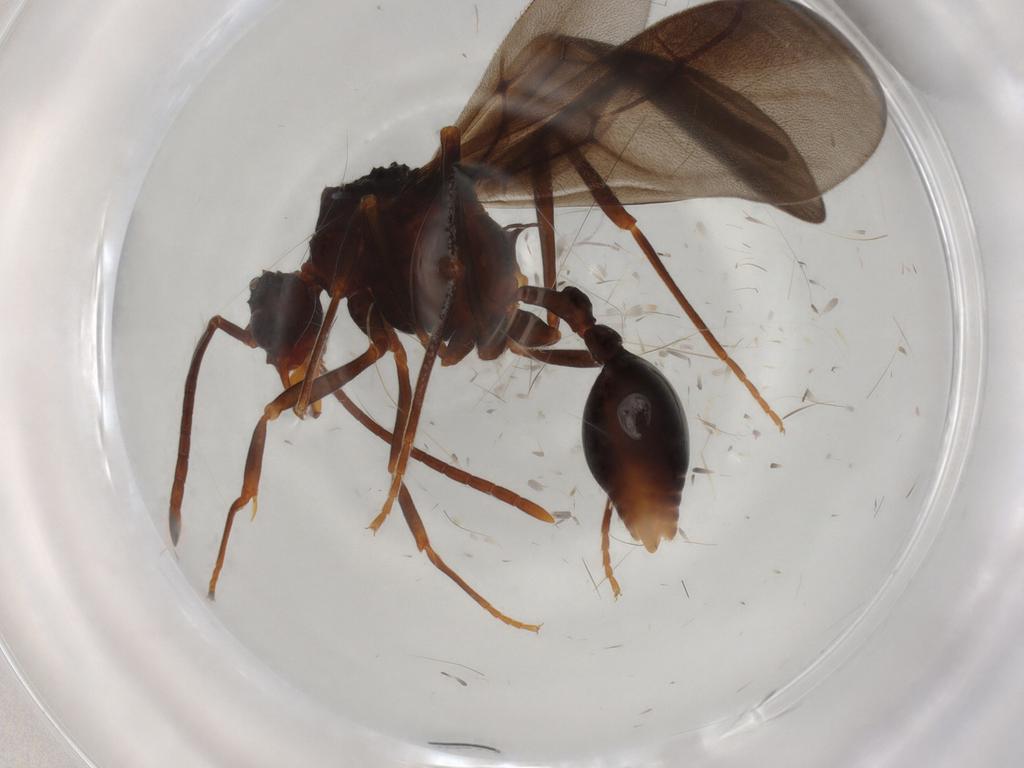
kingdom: Animalia
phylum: Arthropoda
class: Insecta
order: Hymenoptera
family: Formicidae
